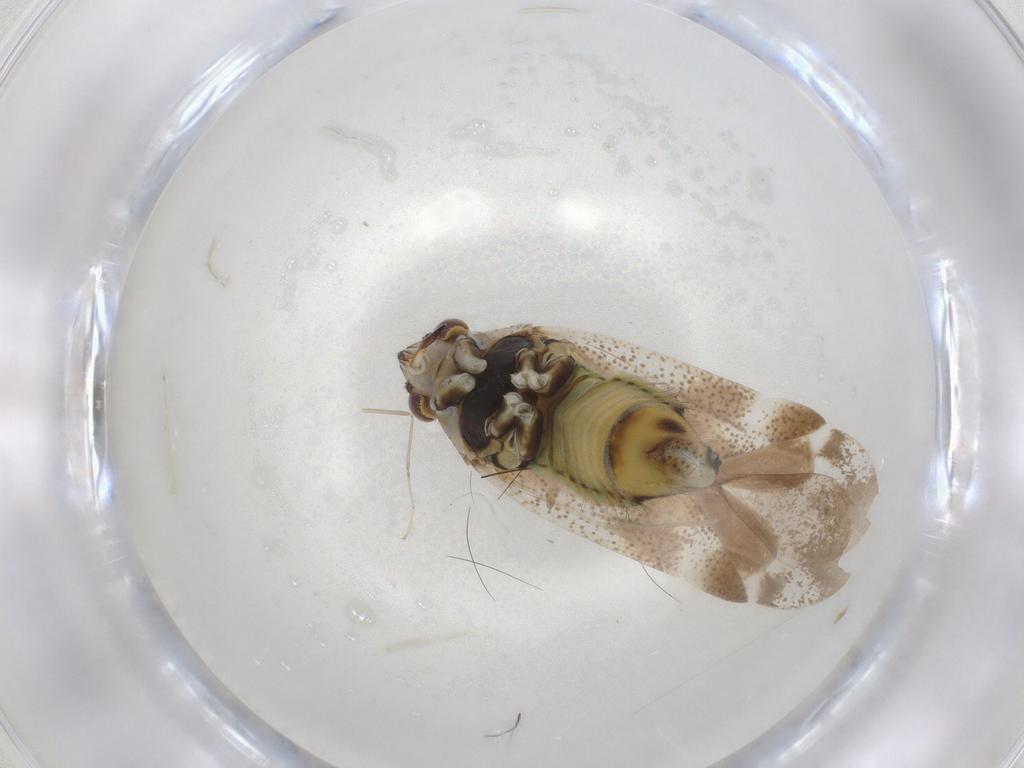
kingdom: Animalia
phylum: Arthropoda
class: Insecta
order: Hemiptera
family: Miridae
